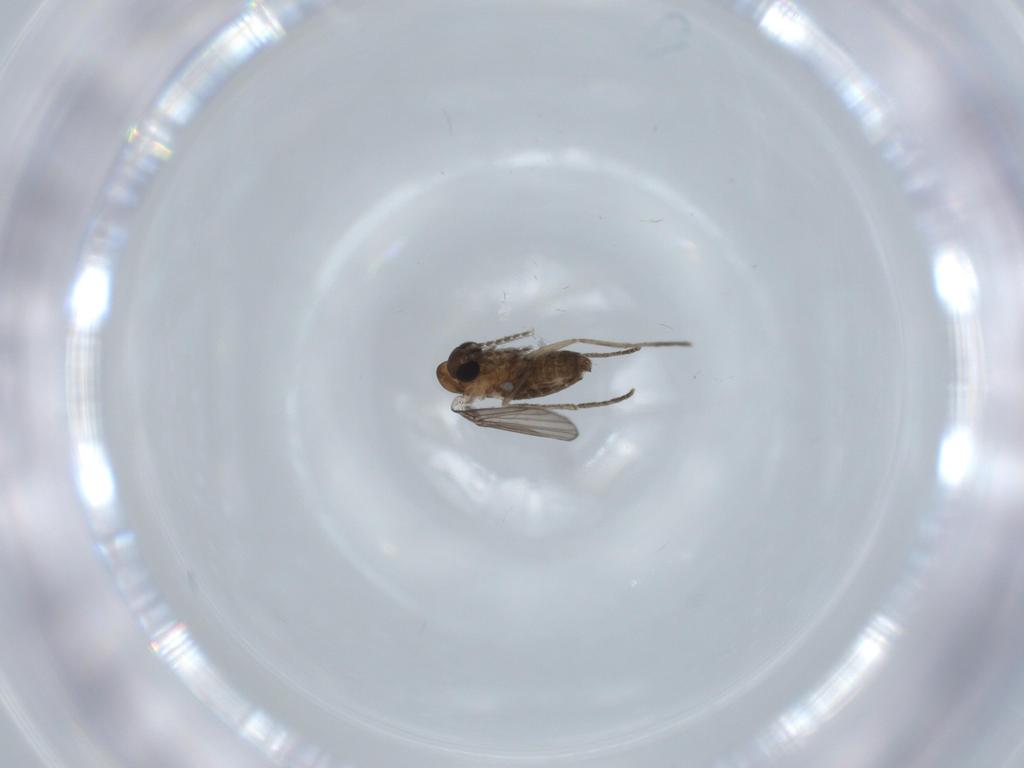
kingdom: Animalia
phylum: Arthropoda
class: Insecta
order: Diptera
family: Psychodidae
